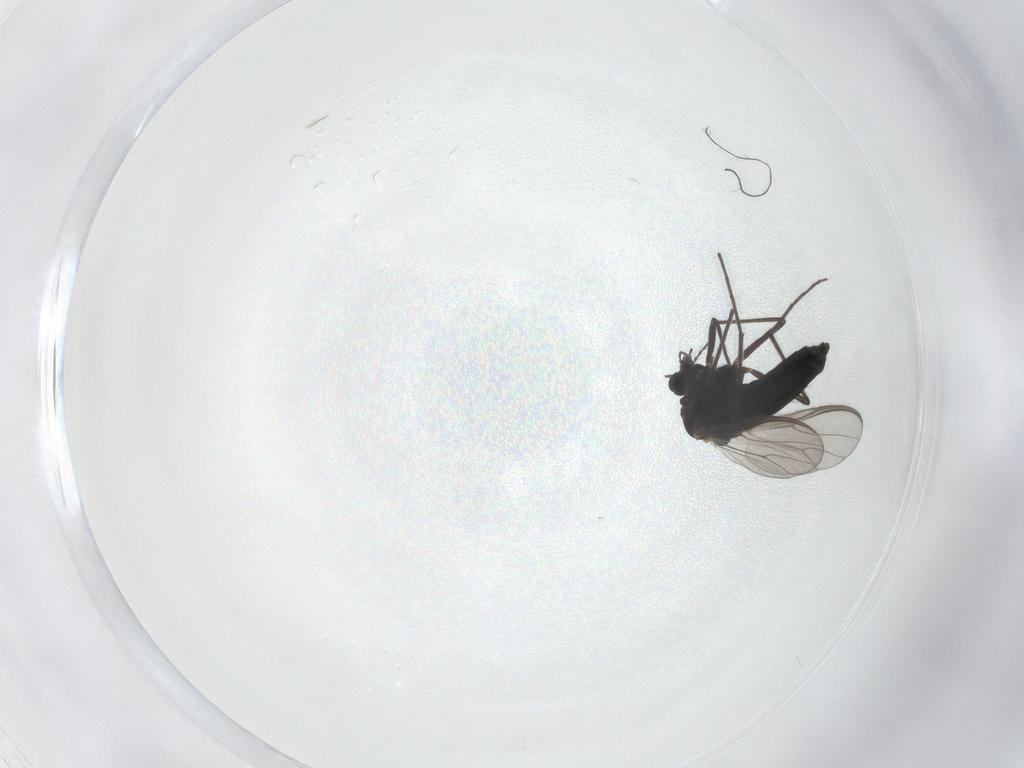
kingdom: Animalia
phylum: Arthropoda
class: Insecta
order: Diptera
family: Chironomidae
